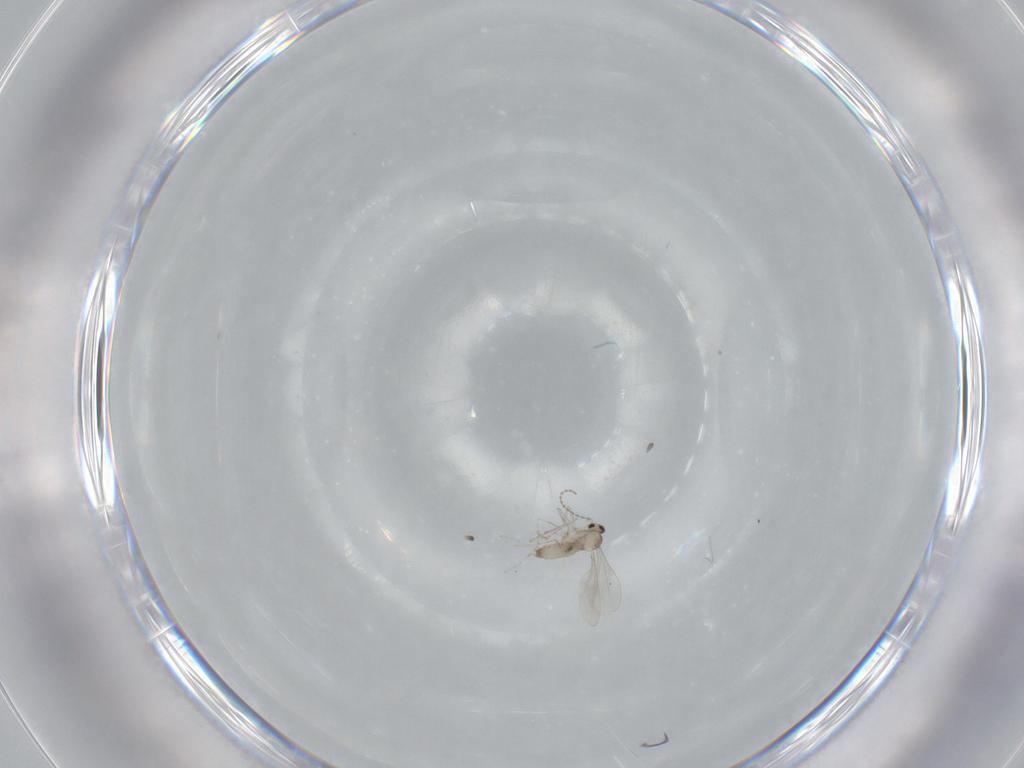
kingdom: Animalia
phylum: Arthropoda
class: Insecta
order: Diptera
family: Cecidomyiidae
